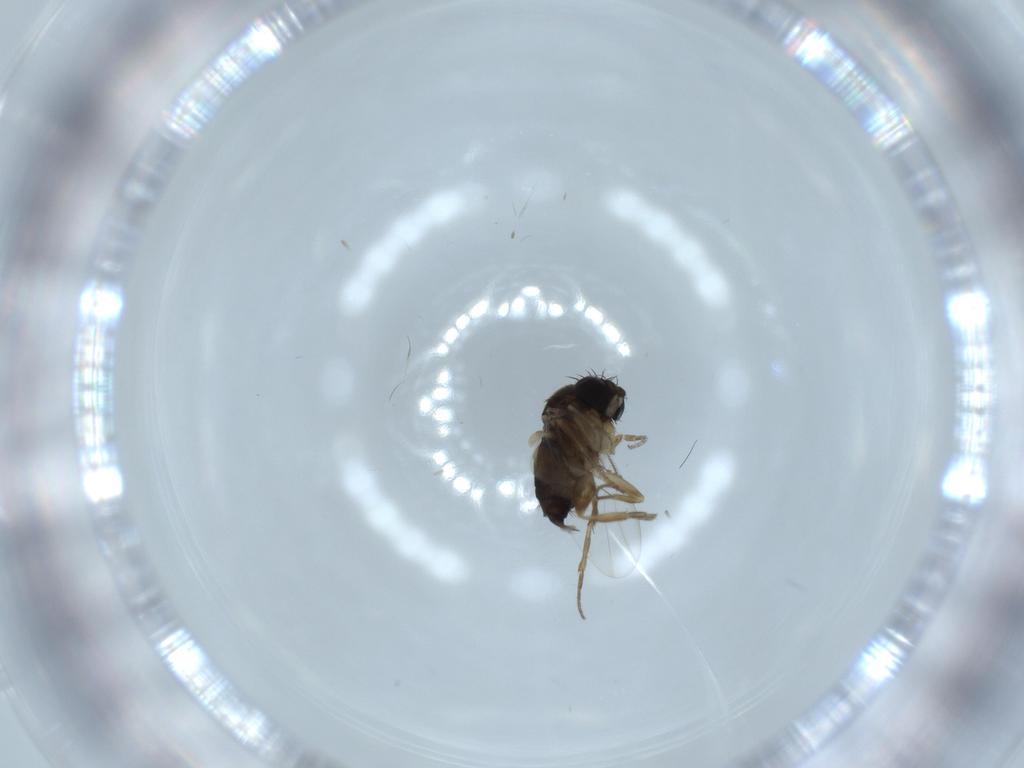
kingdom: Animalia
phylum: Arthropoda
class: Insecta
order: Diptera
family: Cecidomyiidae
